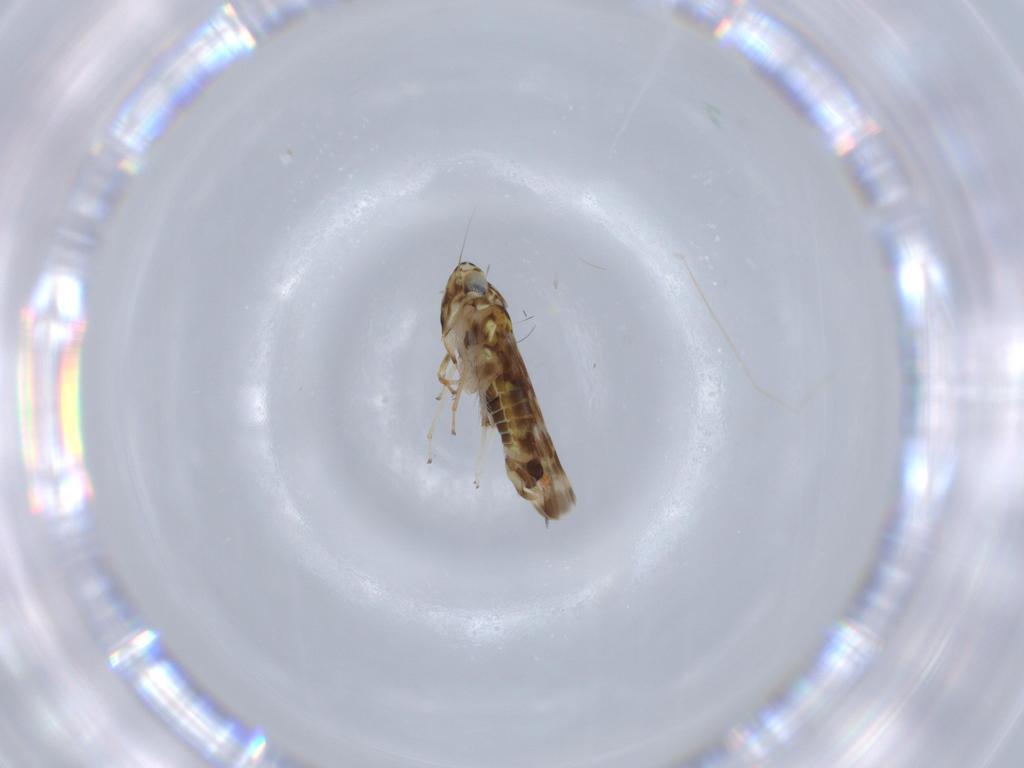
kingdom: Animalia
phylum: Arthropoda
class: Insecta
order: Hemiptera
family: Cicadellidae
